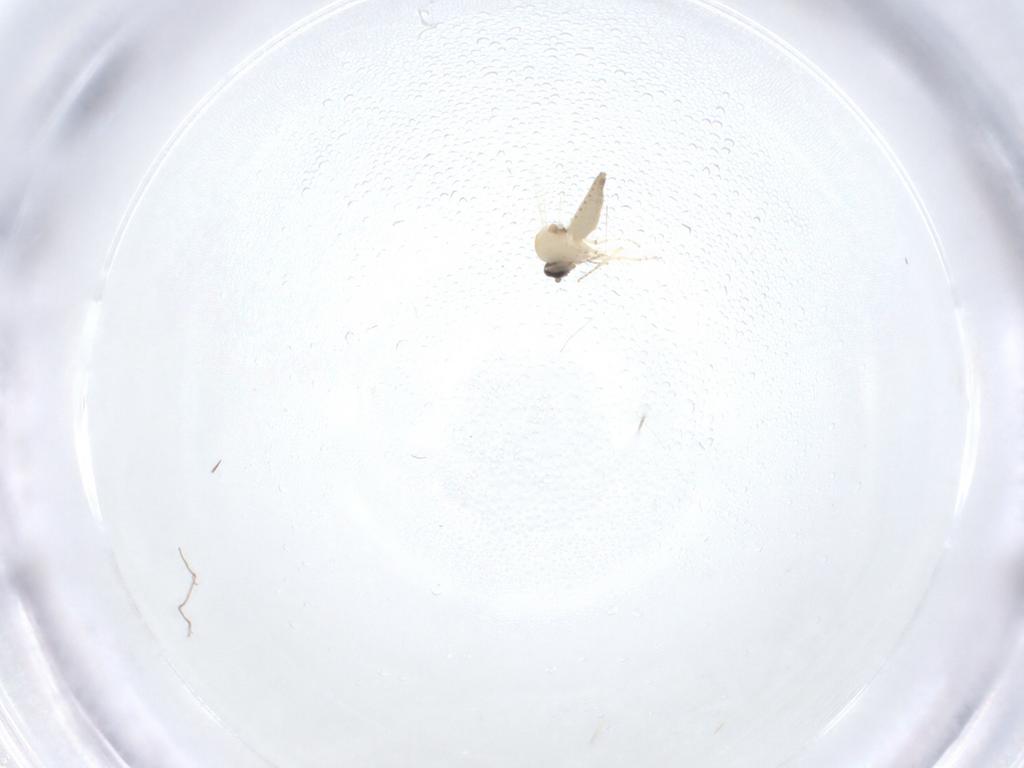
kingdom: Animalia
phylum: Arthropoda
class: Insecta
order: Diptera
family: Ceratopogonidae
